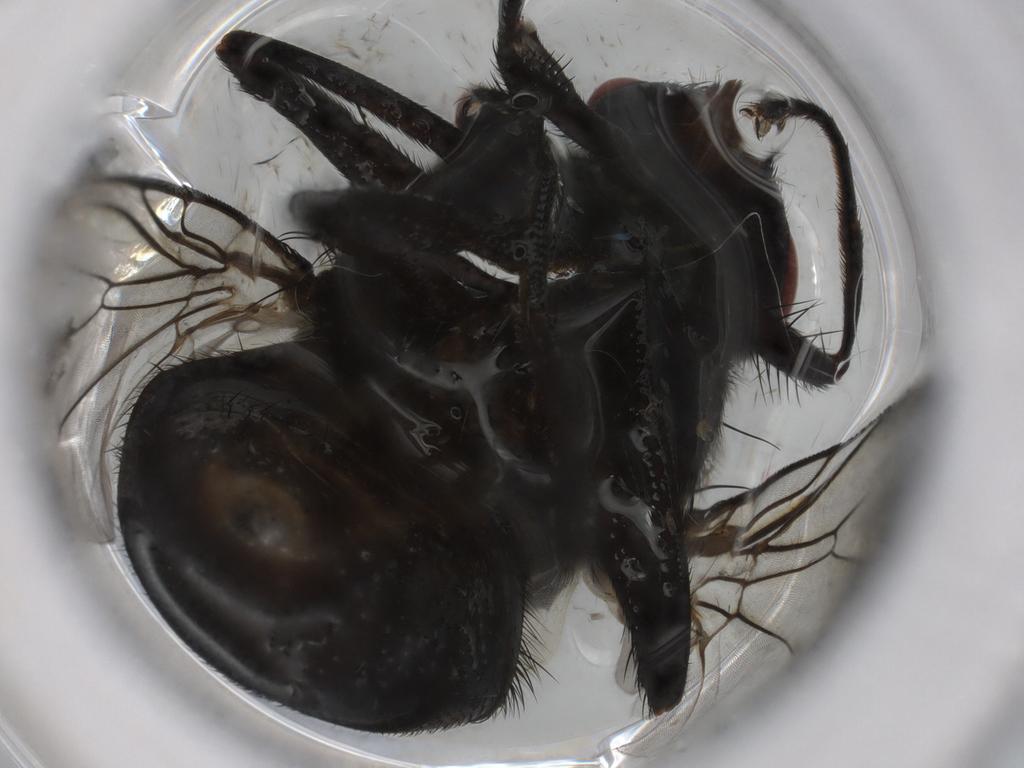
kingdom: Animalia
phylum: Arthropoda
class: Insecta
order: Diptera
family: Muscidae
